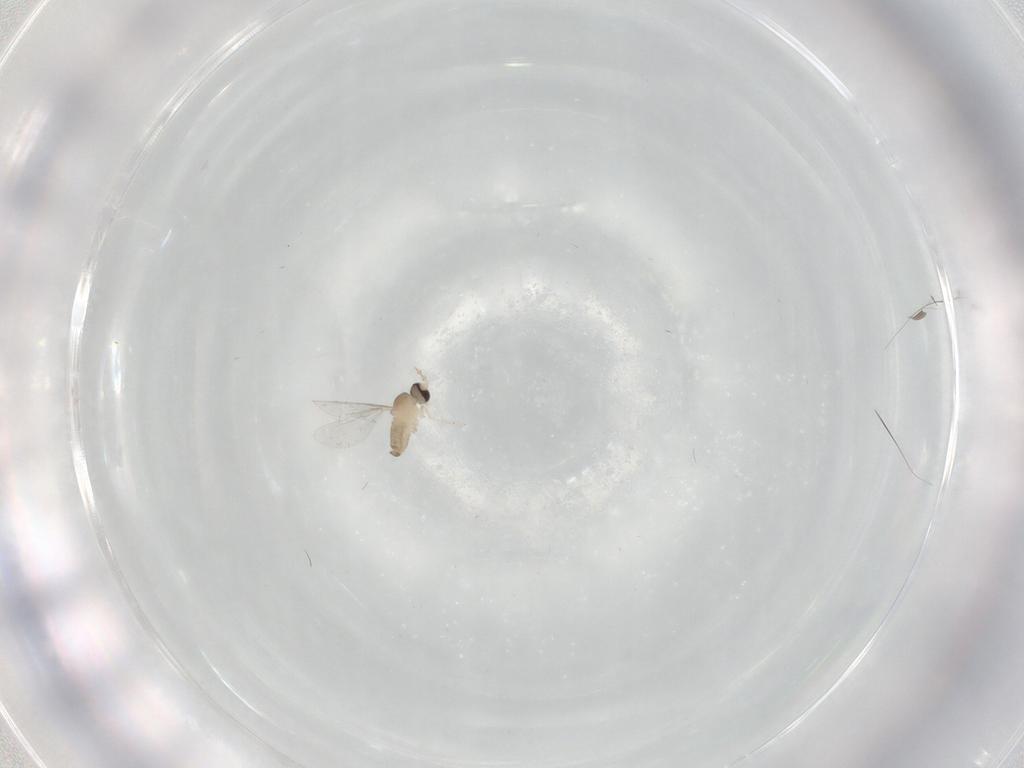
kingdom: Animalia
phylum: Arthropoda
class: Insecta
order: Diptera
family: Cecidomyiidae
